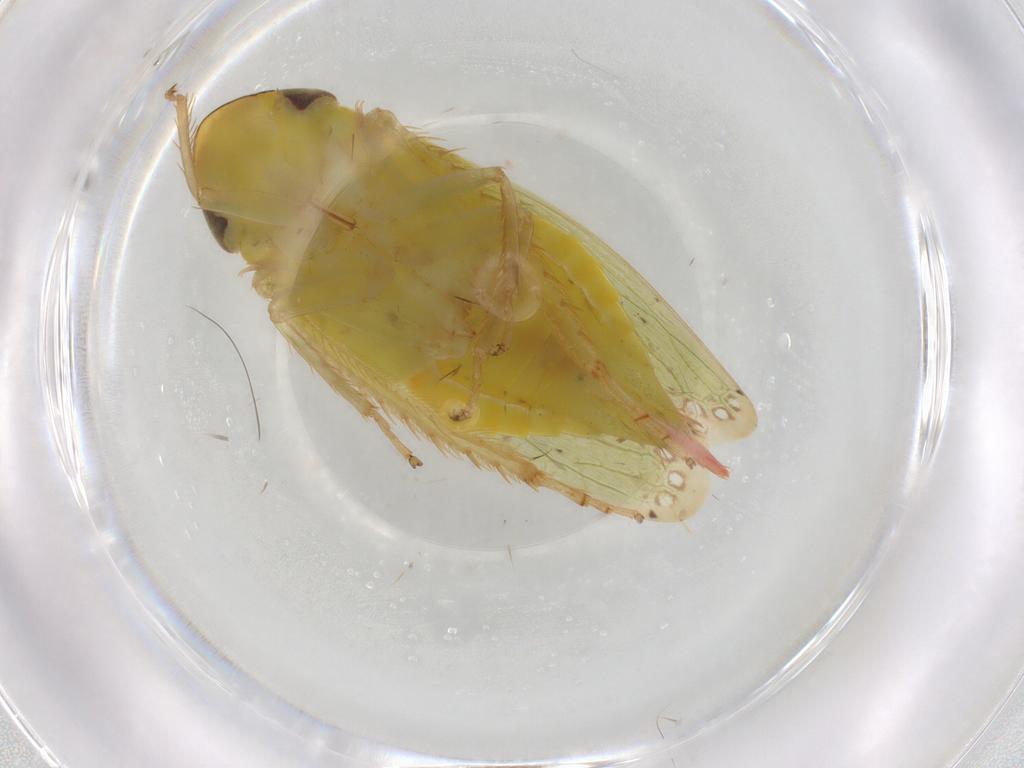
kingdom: Animalia
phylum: Arthropoda
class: Insecta
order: Hemiptera
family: Cicadellidae
